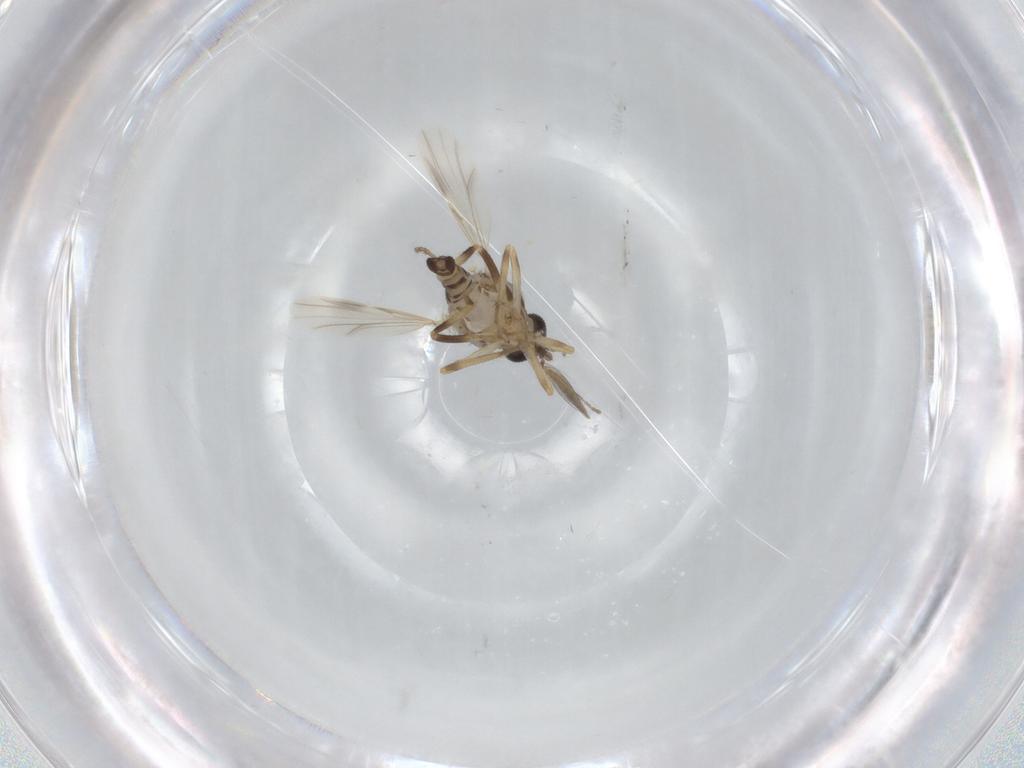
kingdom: Animalia
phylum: Arthropoda
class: Insecta
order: Diptera
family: Ceratopogonidae
